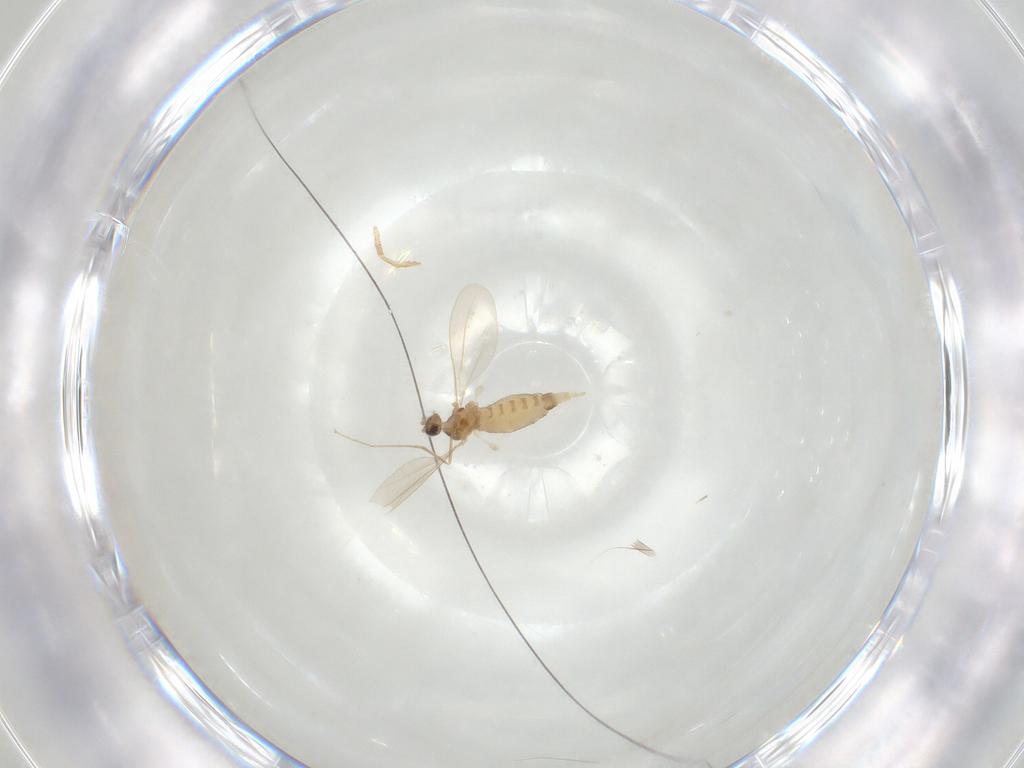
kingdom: Animalia
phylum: Arthropoda
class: Insecta
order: Diptera
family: Cecidomyiidae
